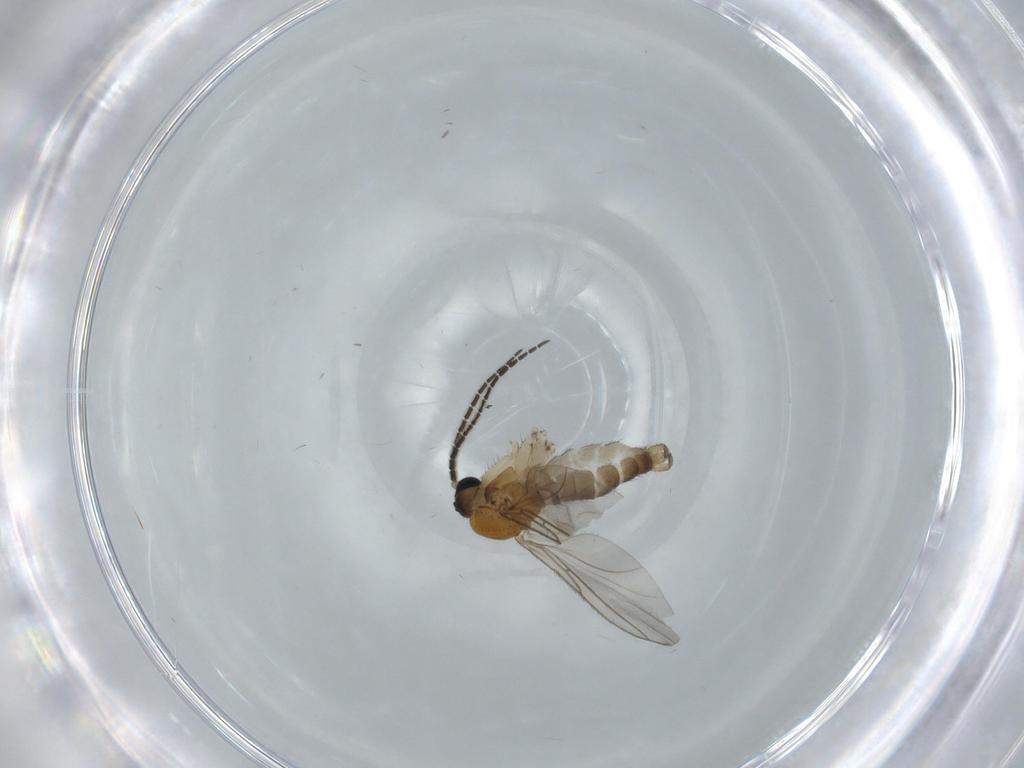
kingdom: Animalia
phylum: Arthropoda
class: Insecta
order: Diptera
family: Sciaridae
